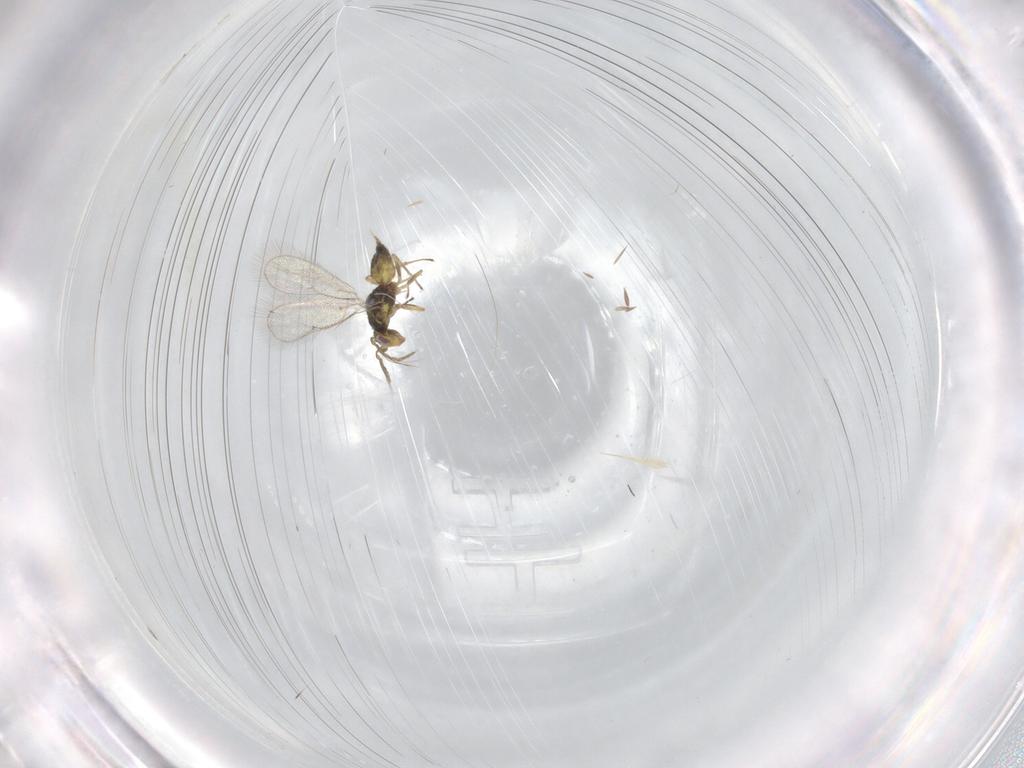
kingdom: Animalia
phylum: Arthropoda
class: Insecta
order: Hymenoptera
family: Eulophidae
